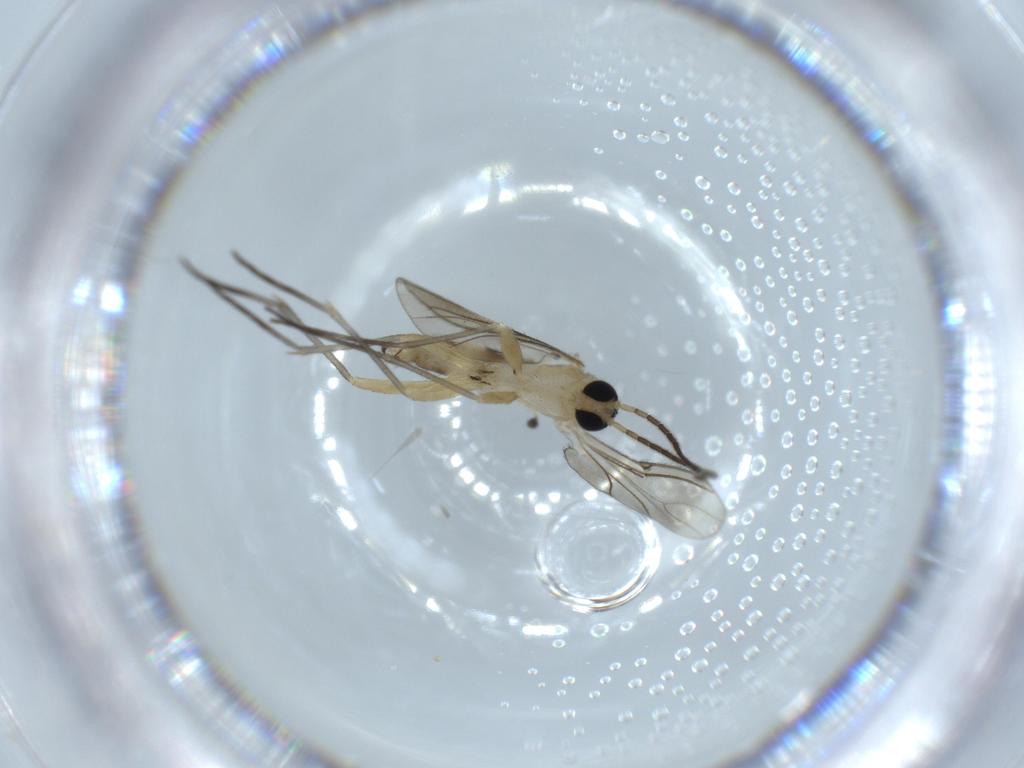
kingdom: Animalia
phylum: Arthropoda
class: Insecta
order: Diptera
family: Sciaridae
